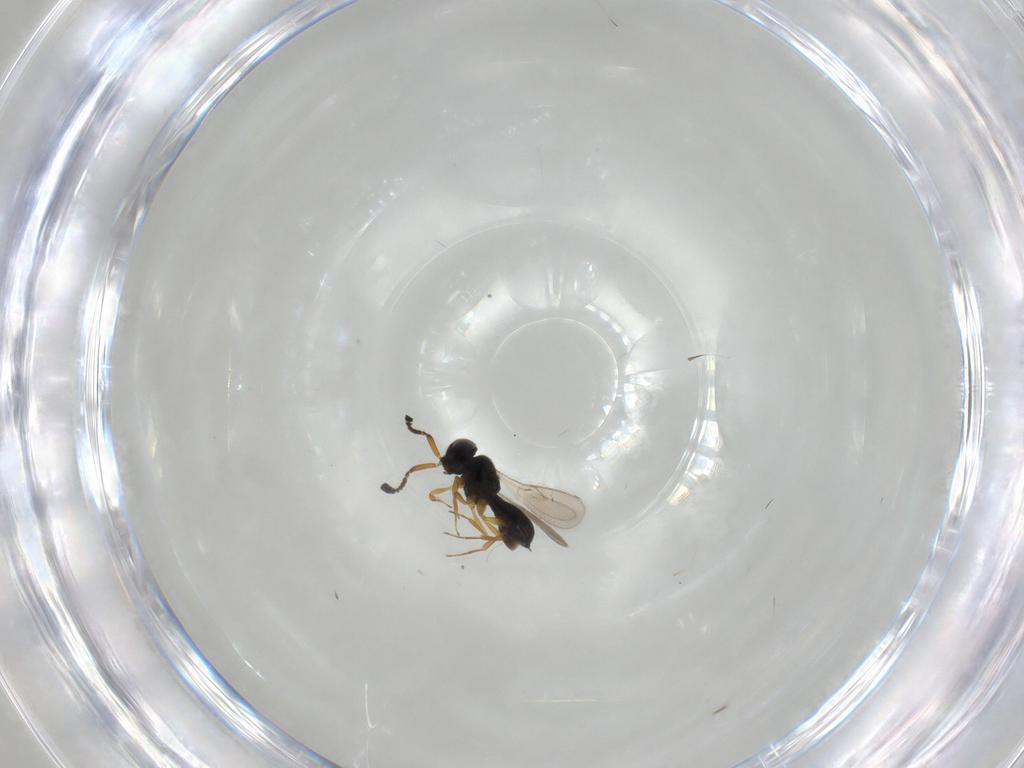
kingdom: Animalia
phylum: Arthropoda
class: Insecta
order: Hymenoptera
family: Scelionidae
